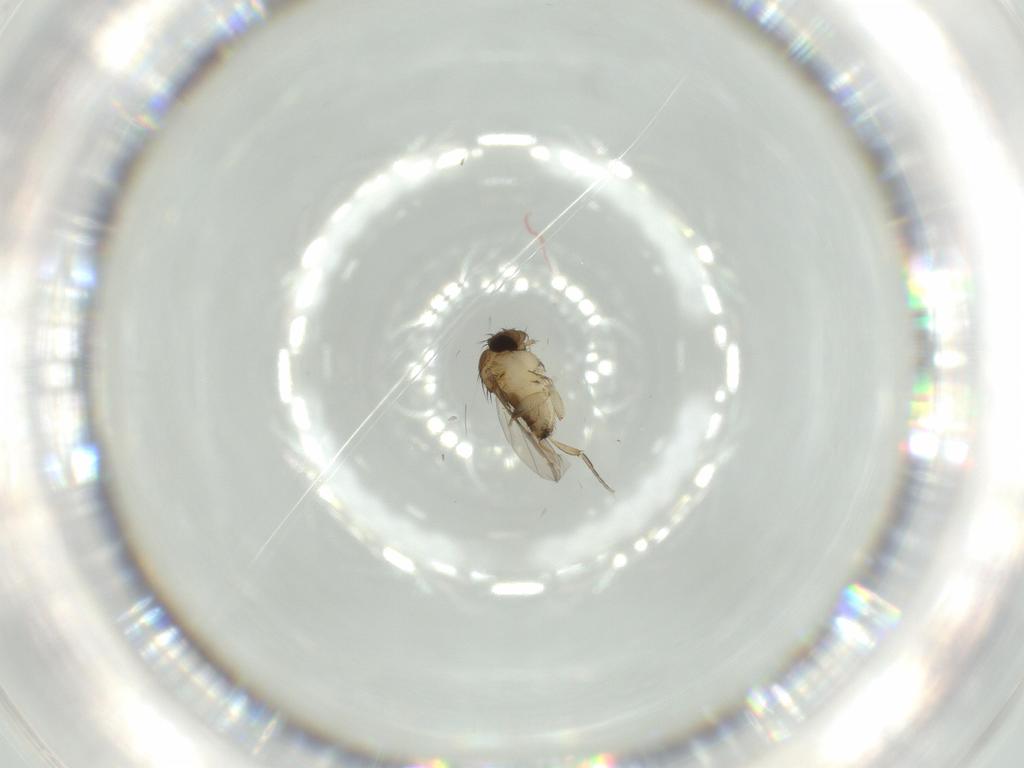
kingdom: Animalia
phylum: Arthropoda
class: Insecta
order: Diptera
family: Phoridae
